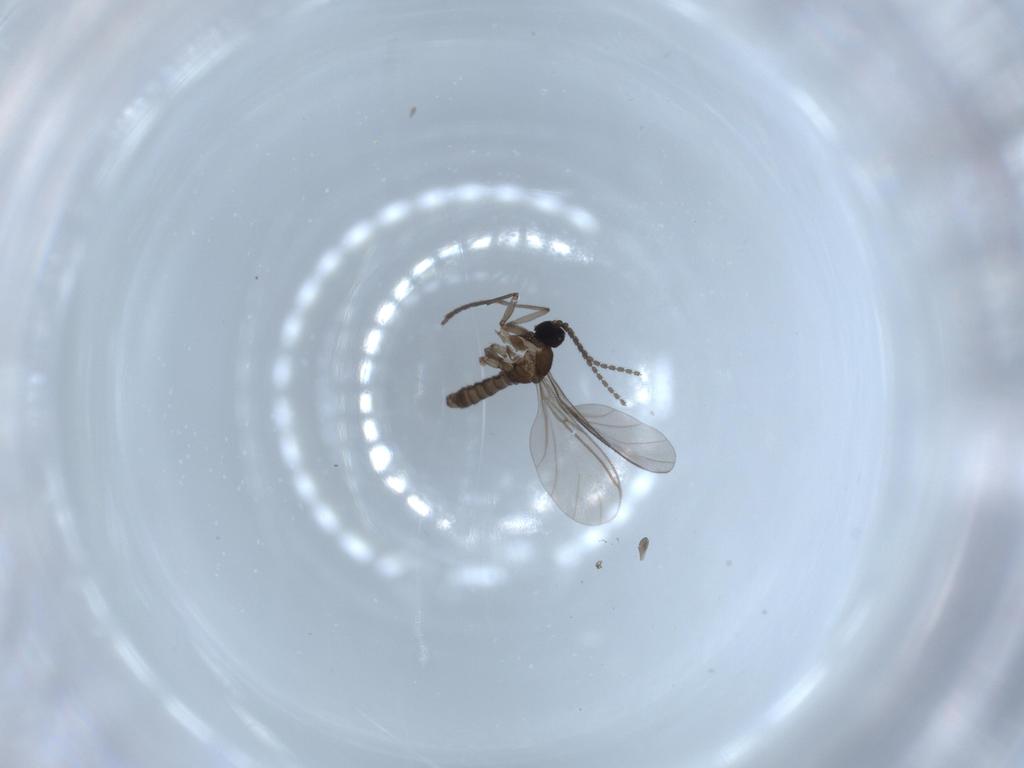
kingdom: Animalia
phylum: Arthropoda
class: Insecta
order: Diptera
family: Sciaridae
